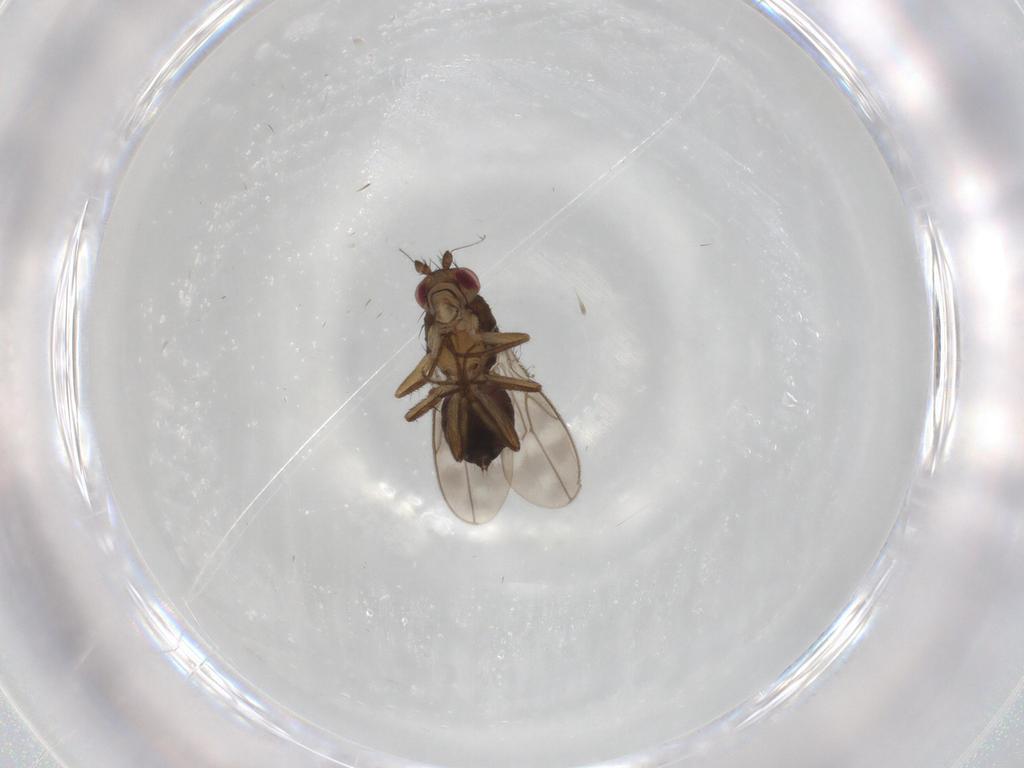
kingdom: Animalia
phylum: Arthropoda
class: Insecta
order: Diptera
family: Sphaeroceridae
